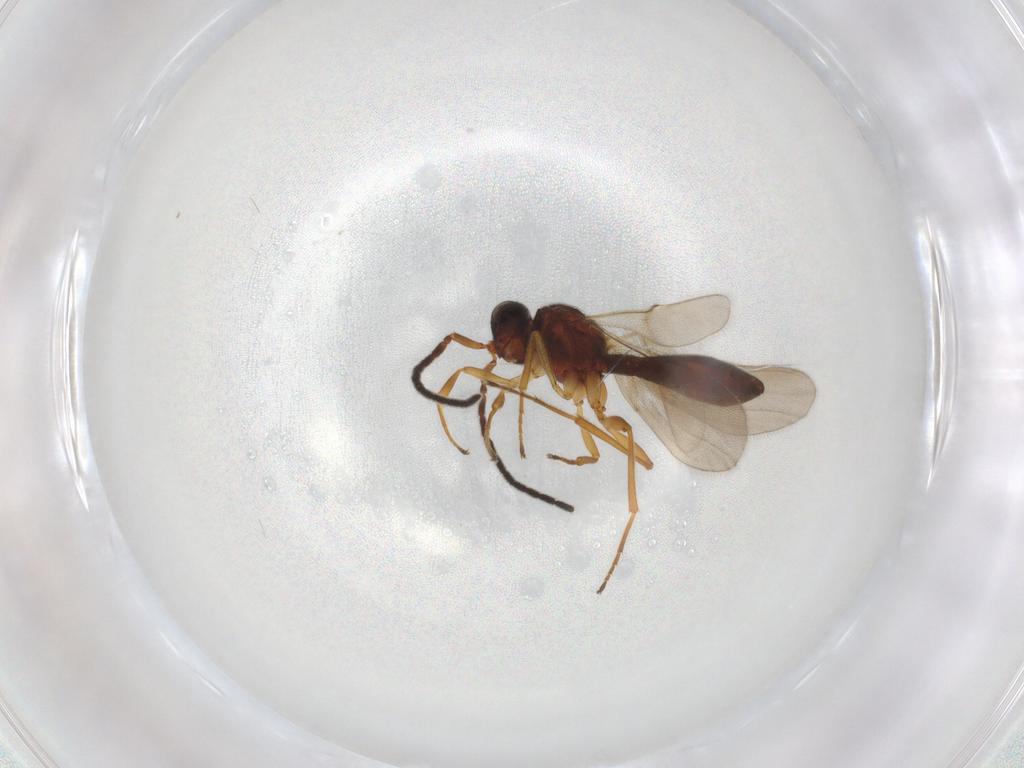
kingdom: Animalia
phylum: Arthropoda
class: Insecta
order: Hymenoptera
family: Scelionidae
